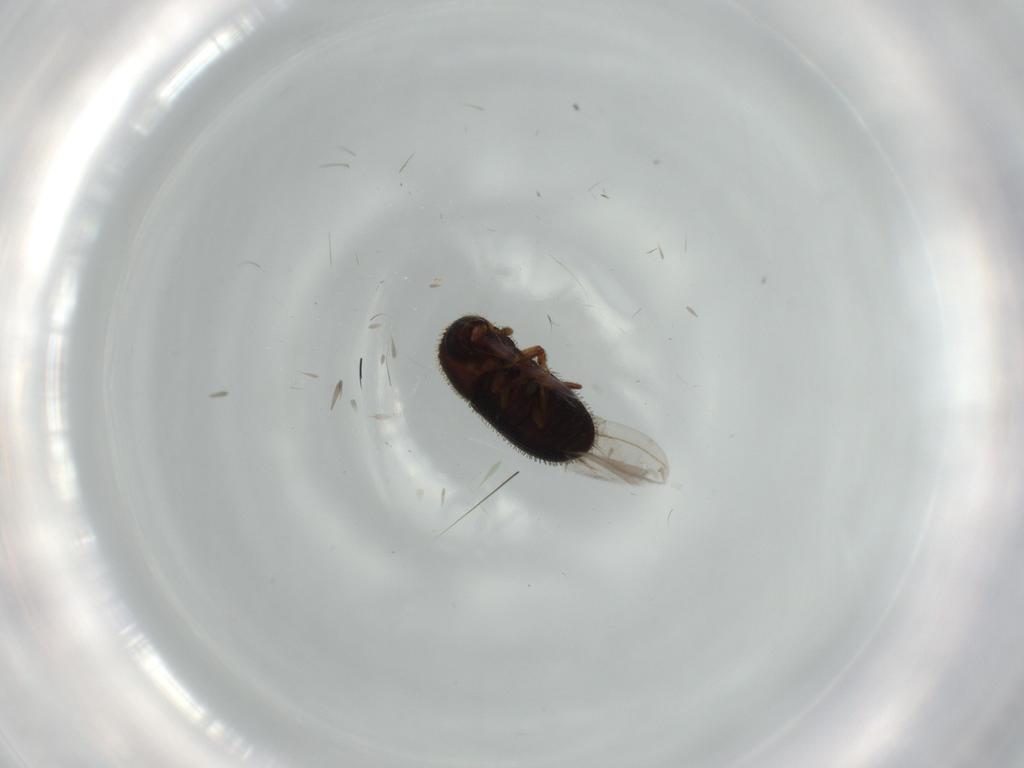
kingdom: Animalia
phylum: Arthropoda
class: Insecta
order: Coleoptera
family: Curculionidae
